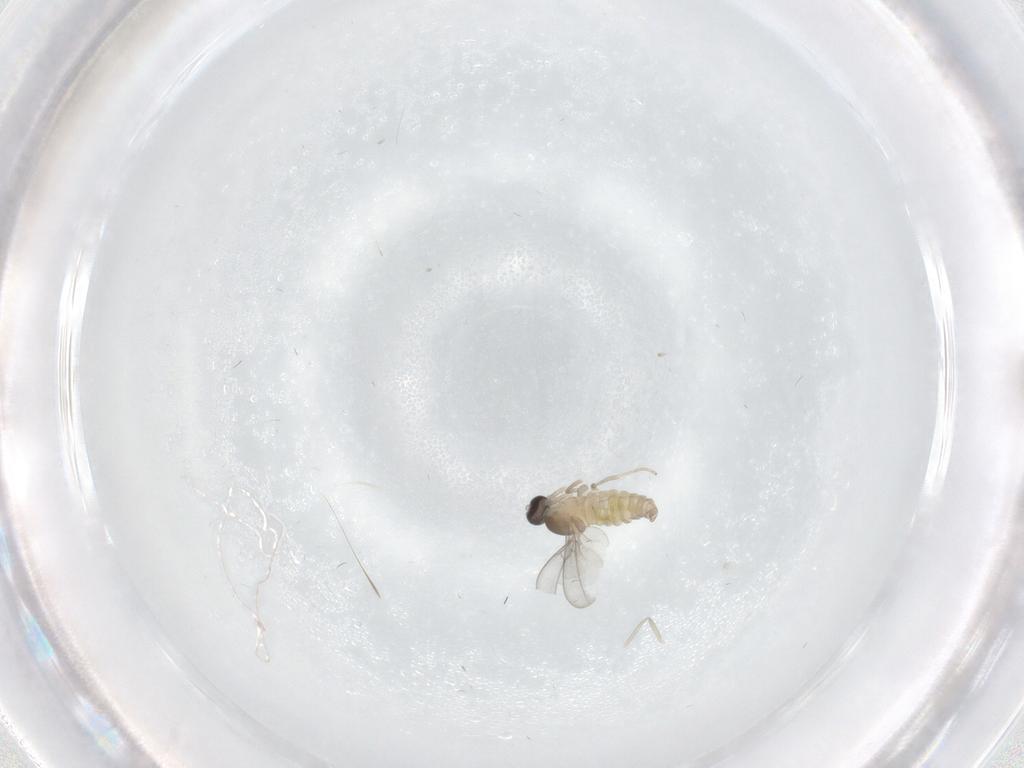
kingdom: Animalia
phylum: Arthropoda
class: Insecta
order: Diptera
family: Cecidomyiidae
